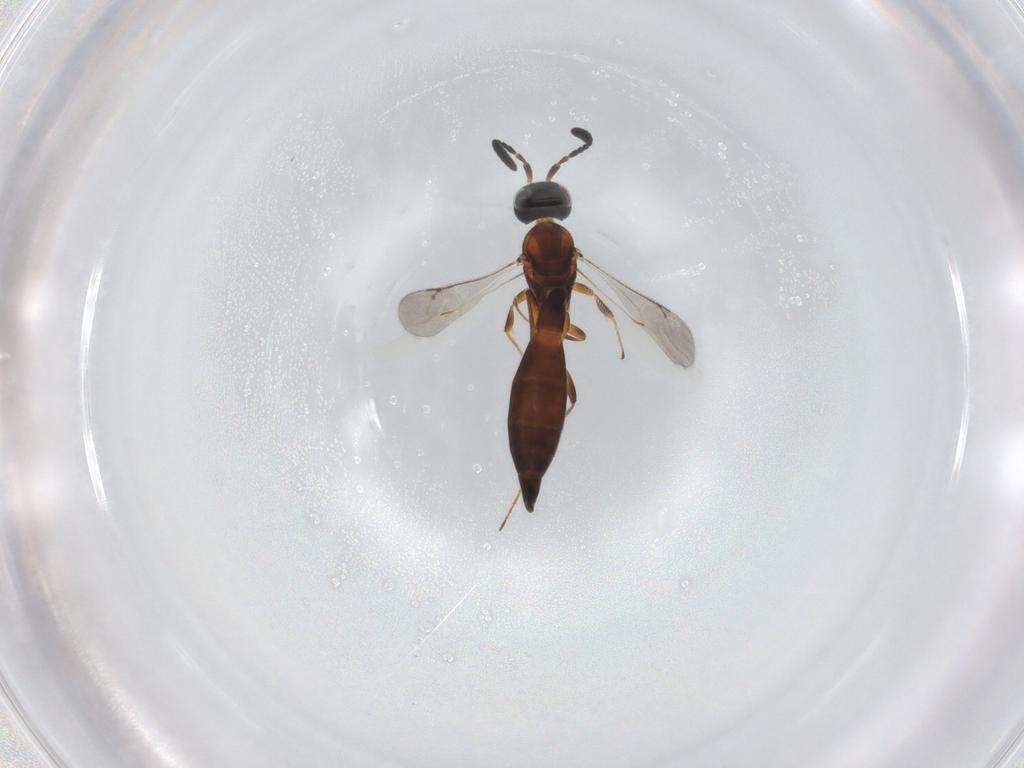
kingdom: Animalia
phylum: Arthropoda
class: Insecta
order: Hymenoptera
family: Scelionidae
